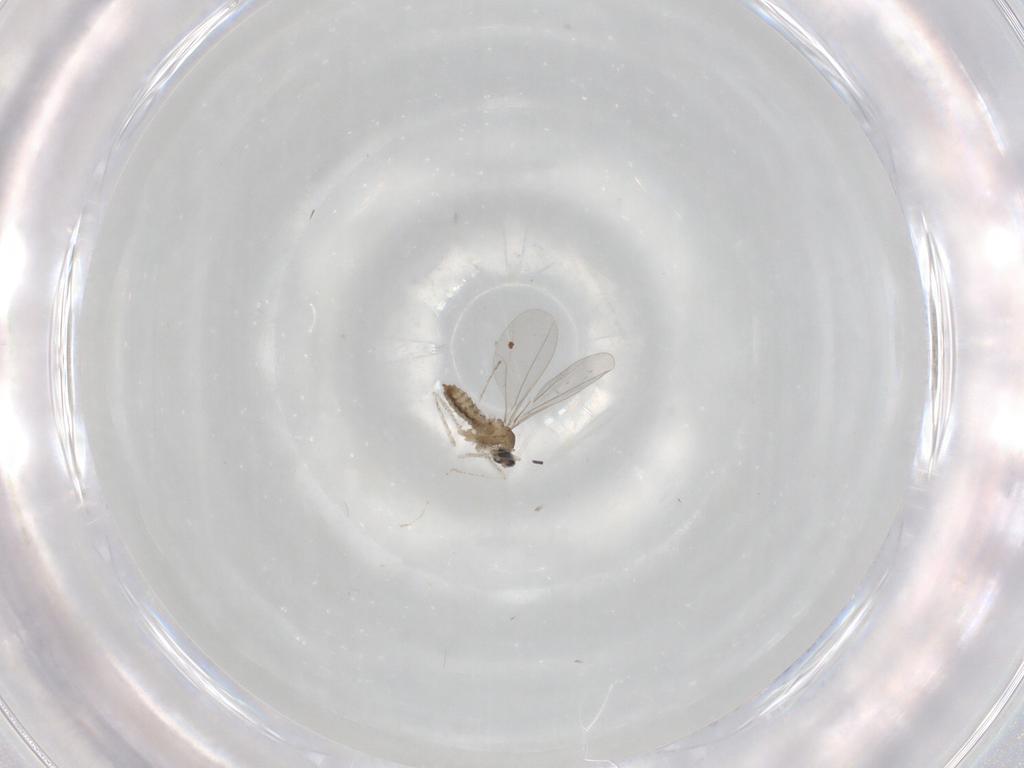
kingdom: Animalia
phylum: Arthropoda
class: Insecta
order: Diptera
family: Cecidomyiidae
